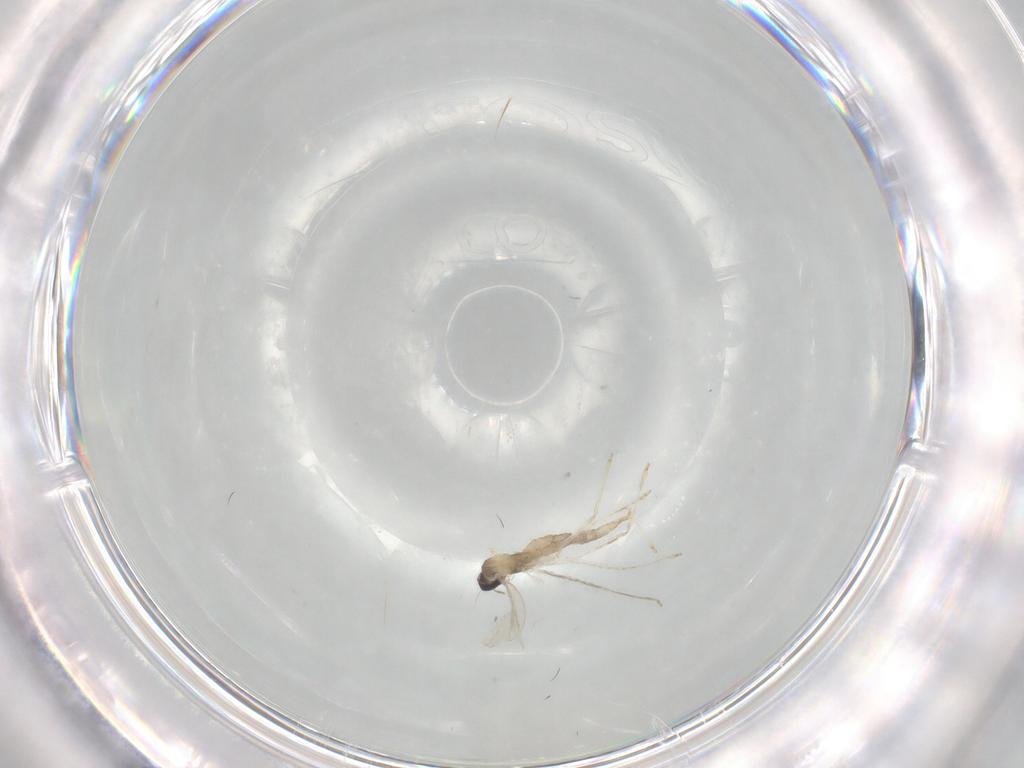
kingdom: Animalia
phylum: Arthropoda
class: Insecta
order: Diptera
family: Cecidomyiidae
